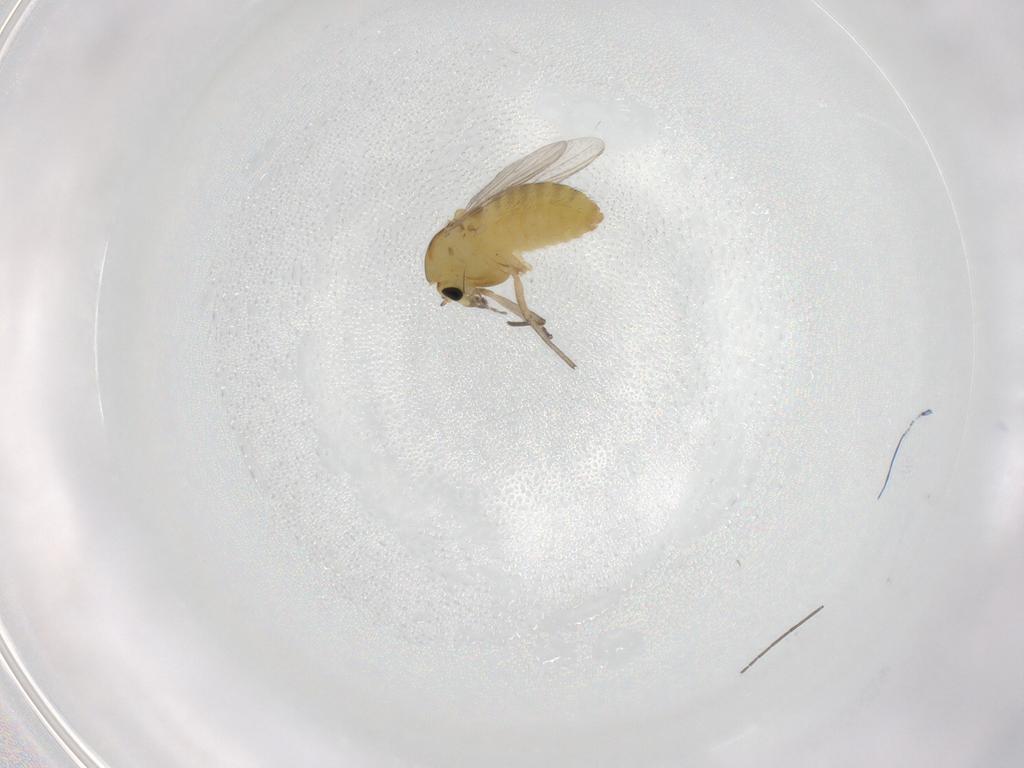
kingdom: Animalia
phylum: Arthropoda
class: Insecta
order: Diptera
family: Chironomidae
